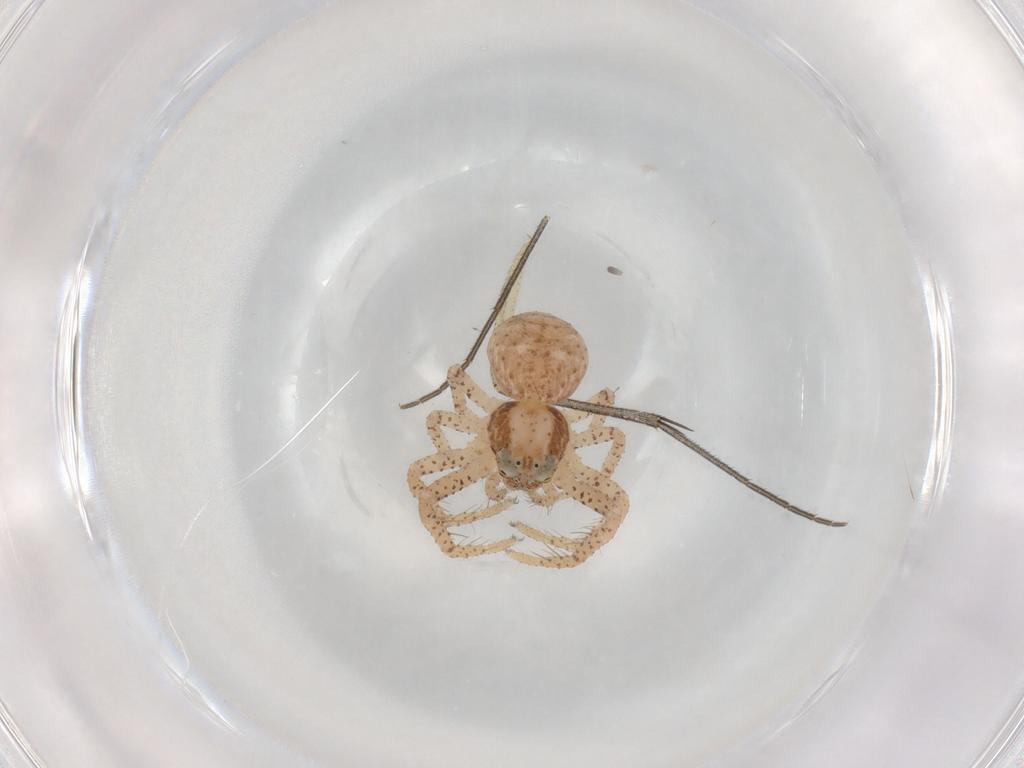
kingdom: Animalia
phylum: Arthropoda
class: Arachnida
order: Araneae
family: Thomisidae
